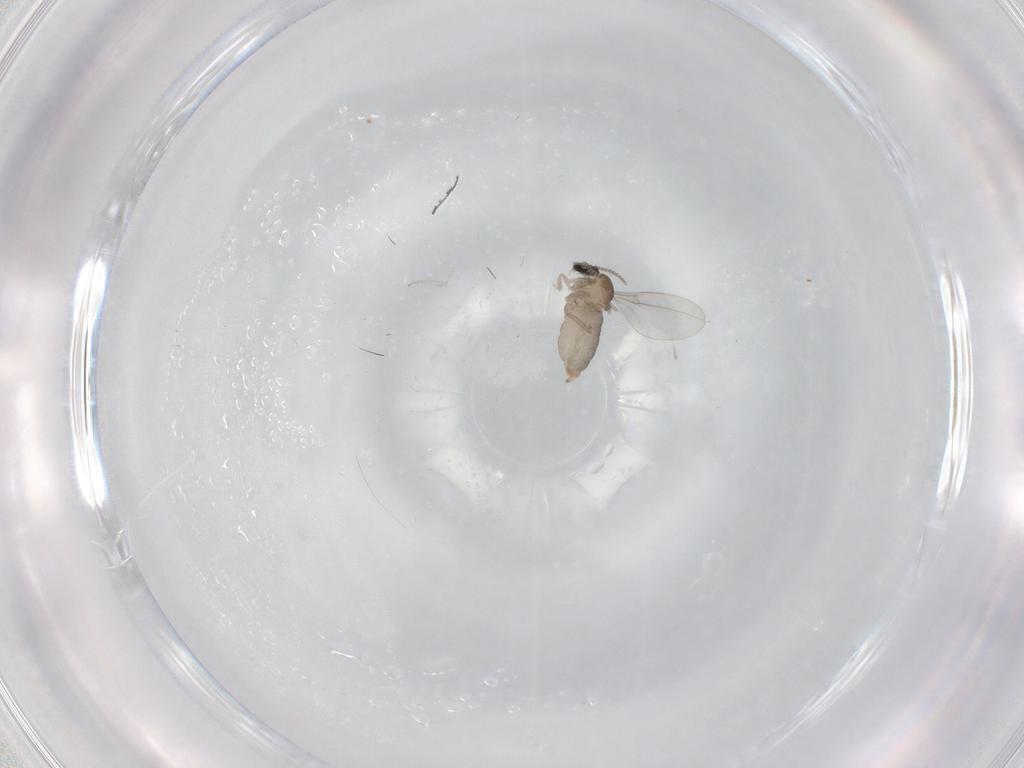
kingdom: Animalia
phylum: Arthropoda
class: Insecta
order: Diptera
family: Cecidomyiidae
